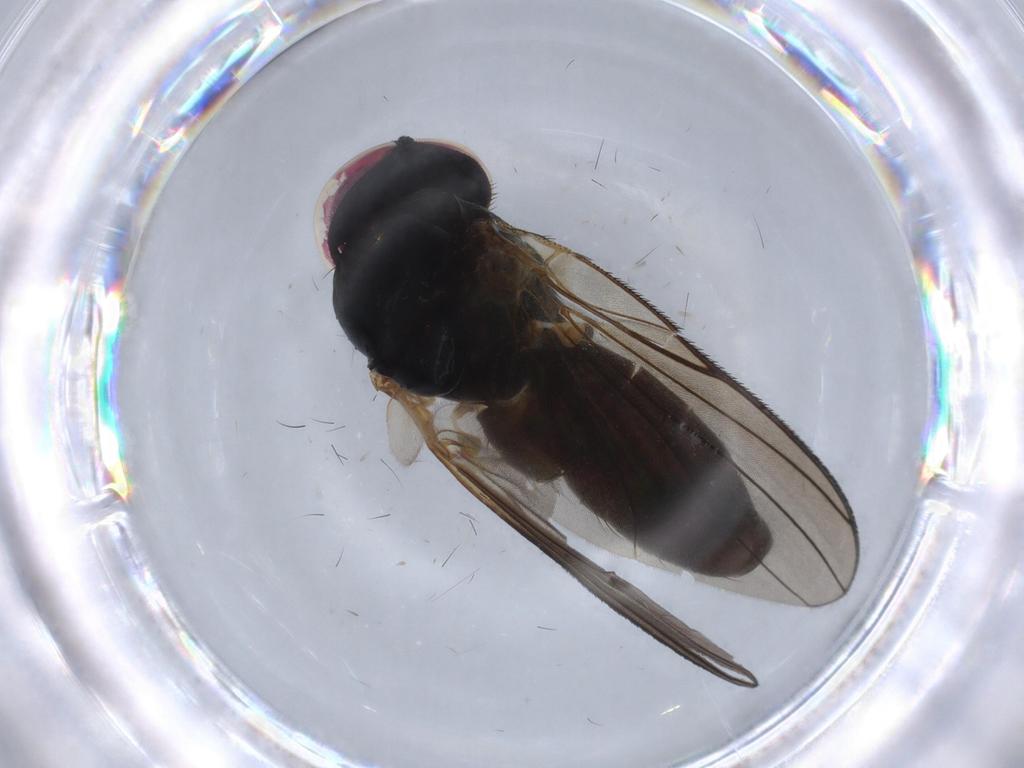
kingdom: Animalia
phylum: Arthropoda
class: Insecta
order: Diptera
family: Fannia
